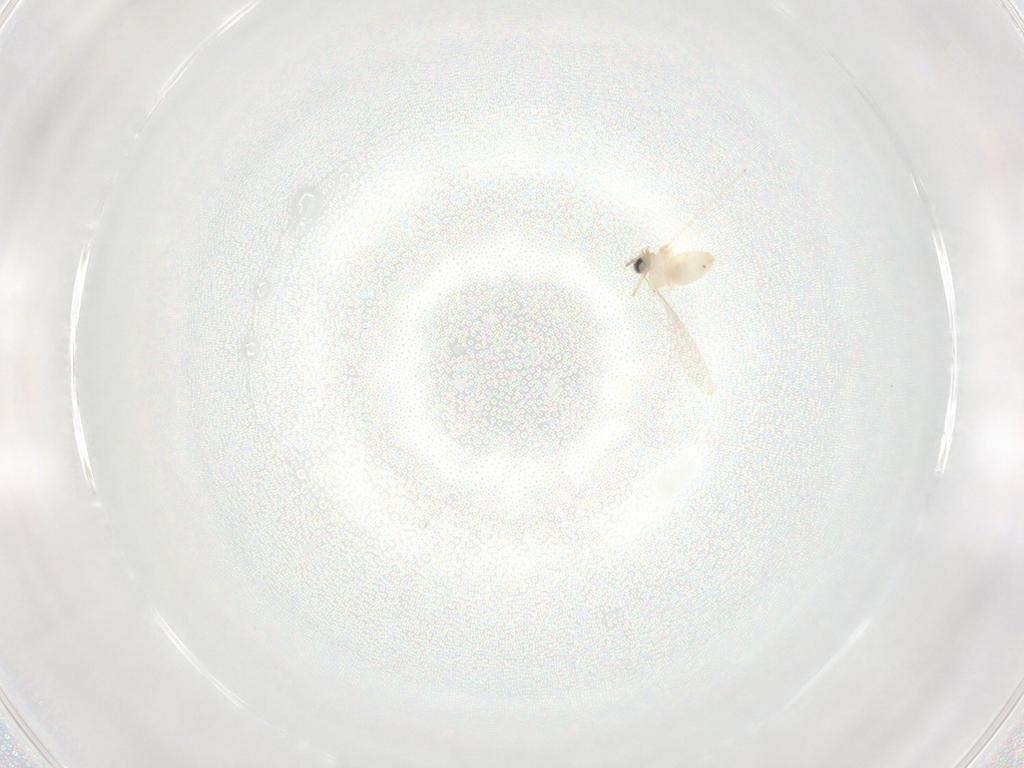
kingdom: Animalia
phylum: Arthropoda
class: Insecta
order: Diptera
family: Cecidomyiidae
